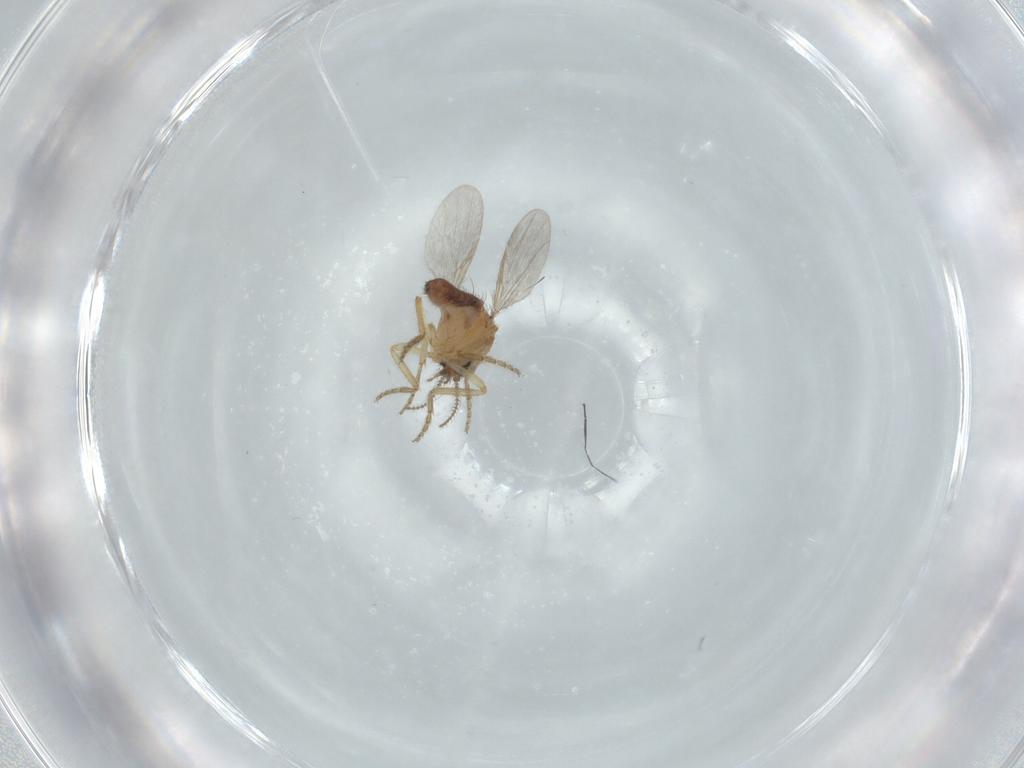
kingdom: Animalia
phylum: Arthropoda
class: Insecta
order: Diptera
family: Ceratopogonidae
